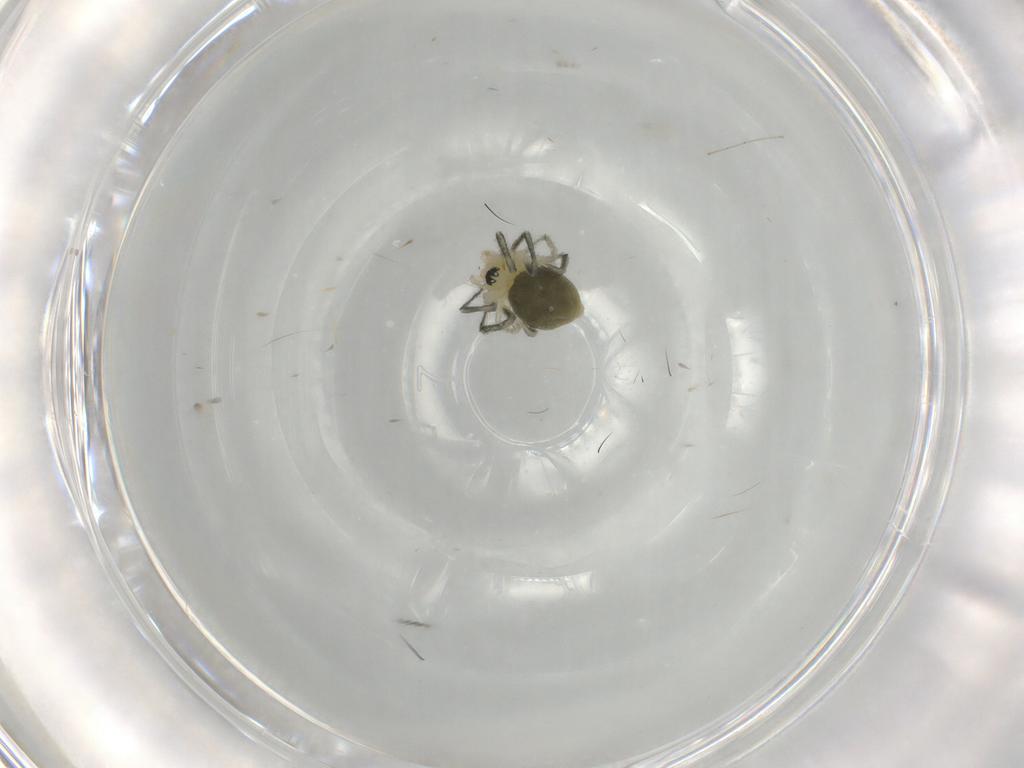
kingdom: Animalia
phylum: Arthropoda
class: Arachnida
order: Araneae
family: Linyphiidae
